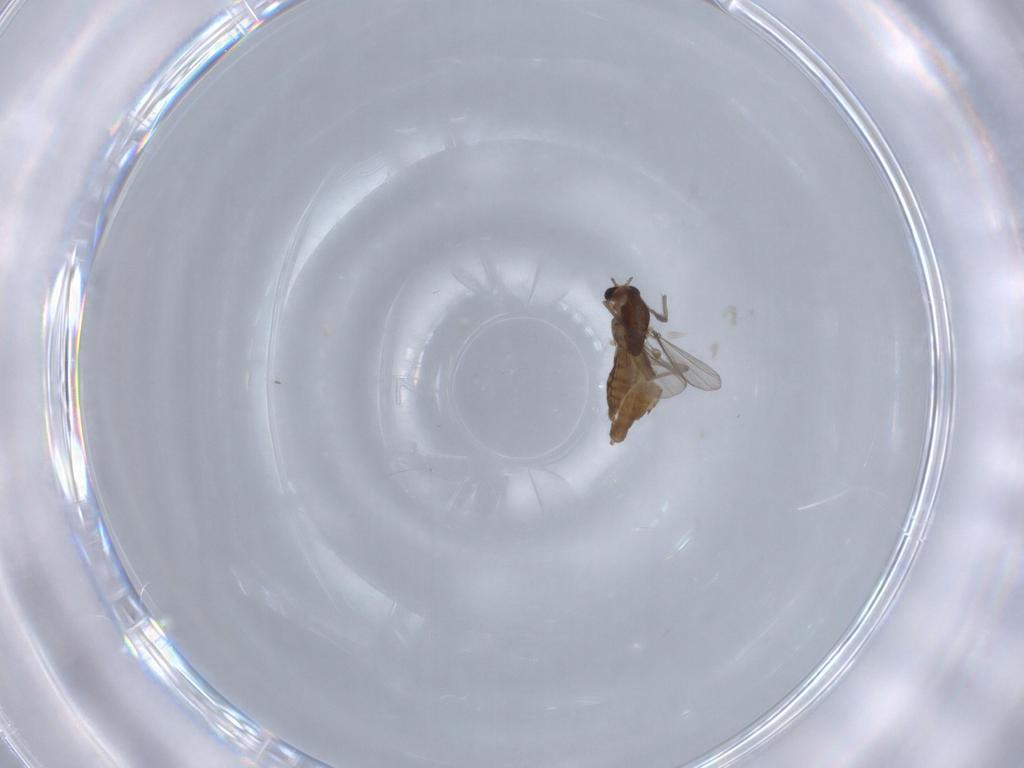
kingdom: Animalia
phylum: Arthropoda
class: Insecta
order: Diptera
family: Chironomidae
